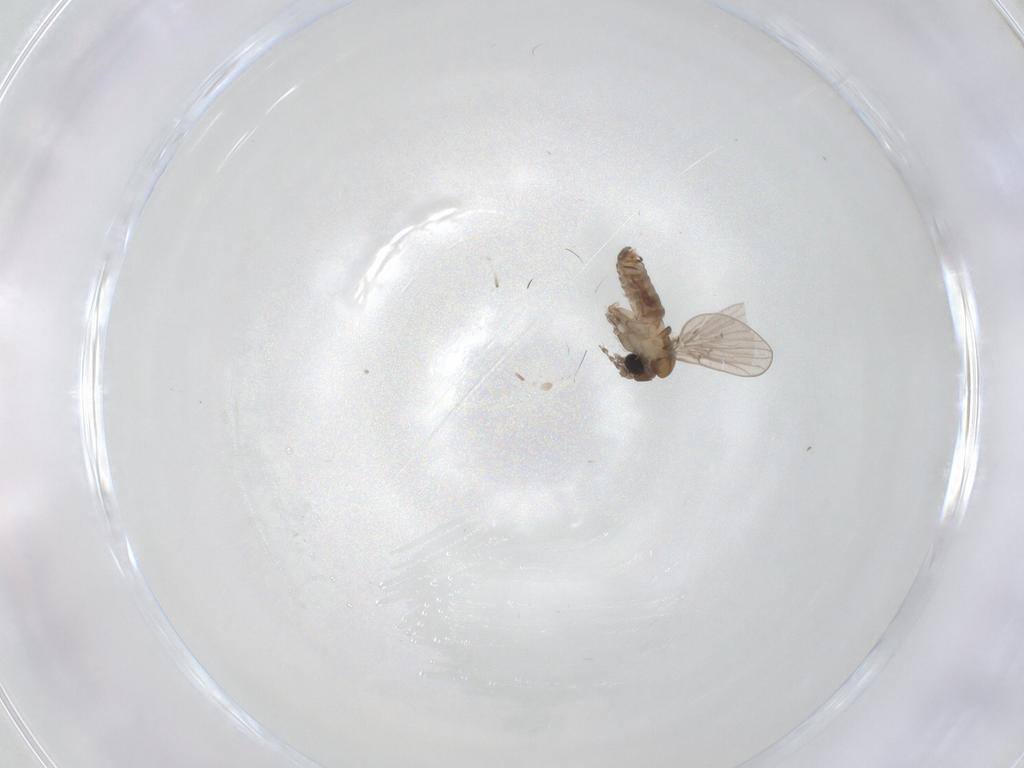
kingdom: Animalia
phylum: Arthropoda
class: Insecta
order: Diptera
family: Psychodidae
